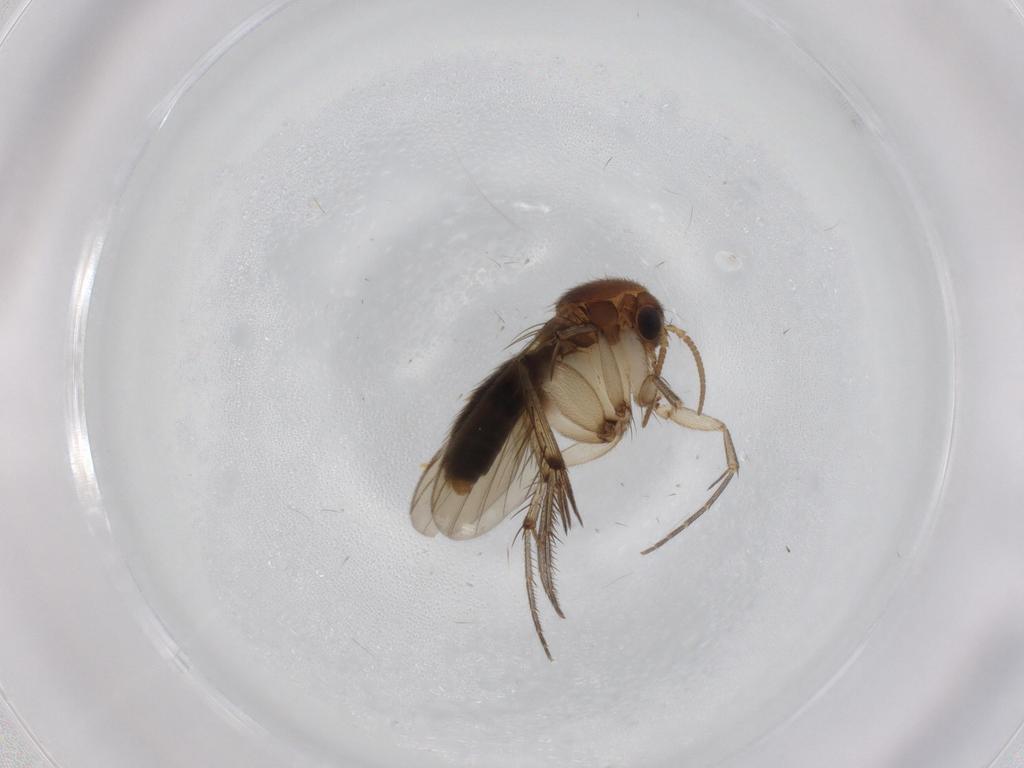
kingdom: Animalia
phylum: Arthropoda
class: Insecta
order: Diptera
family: Mycetophilidae
